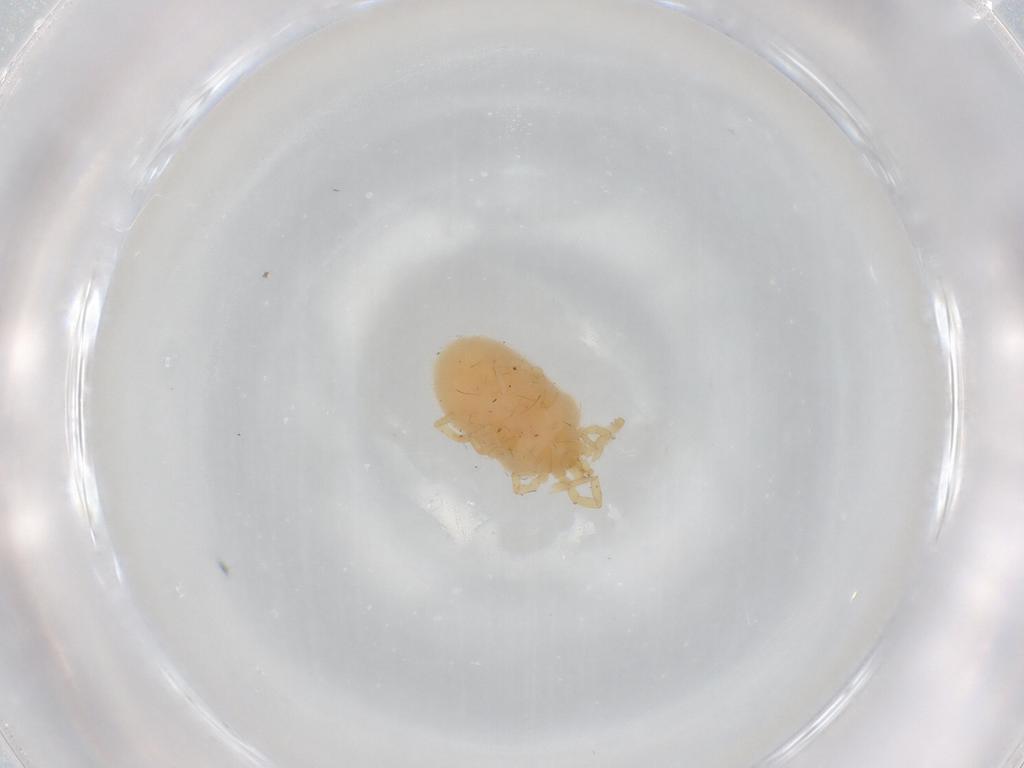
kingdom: Animalia
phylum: Arthropoda
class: Arachnida
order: Trombidiformes
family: Erythraeidae
